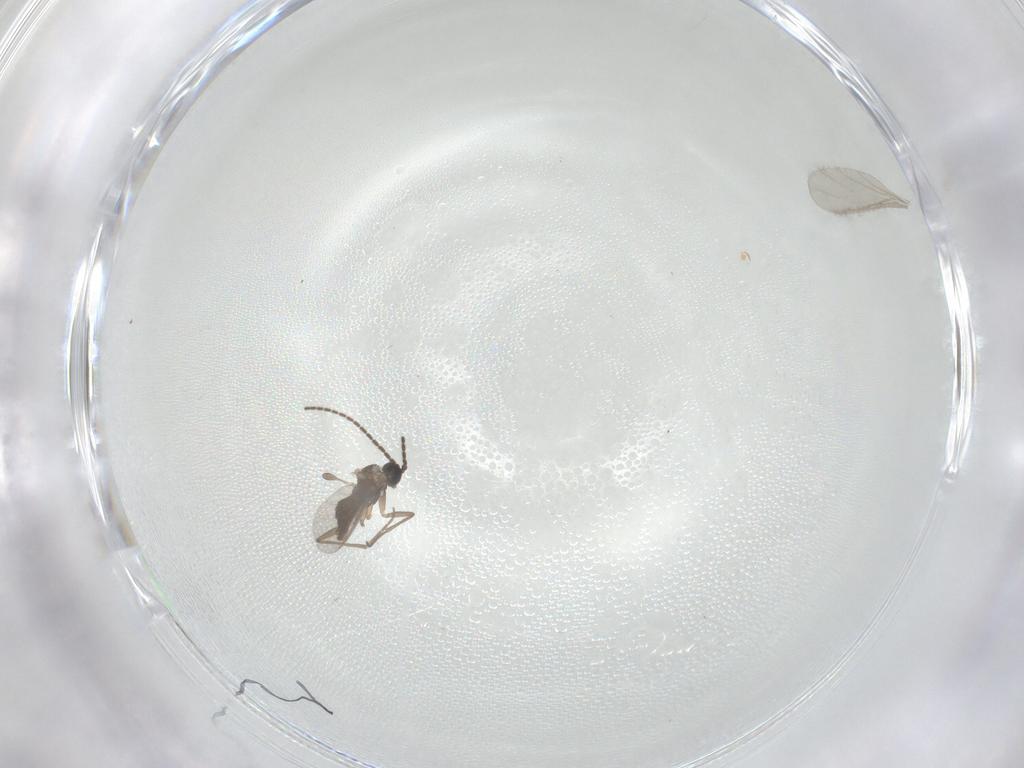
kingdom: Animalia
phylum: Arthropoda
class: Insecta
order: Diptera
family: Sciaridae
